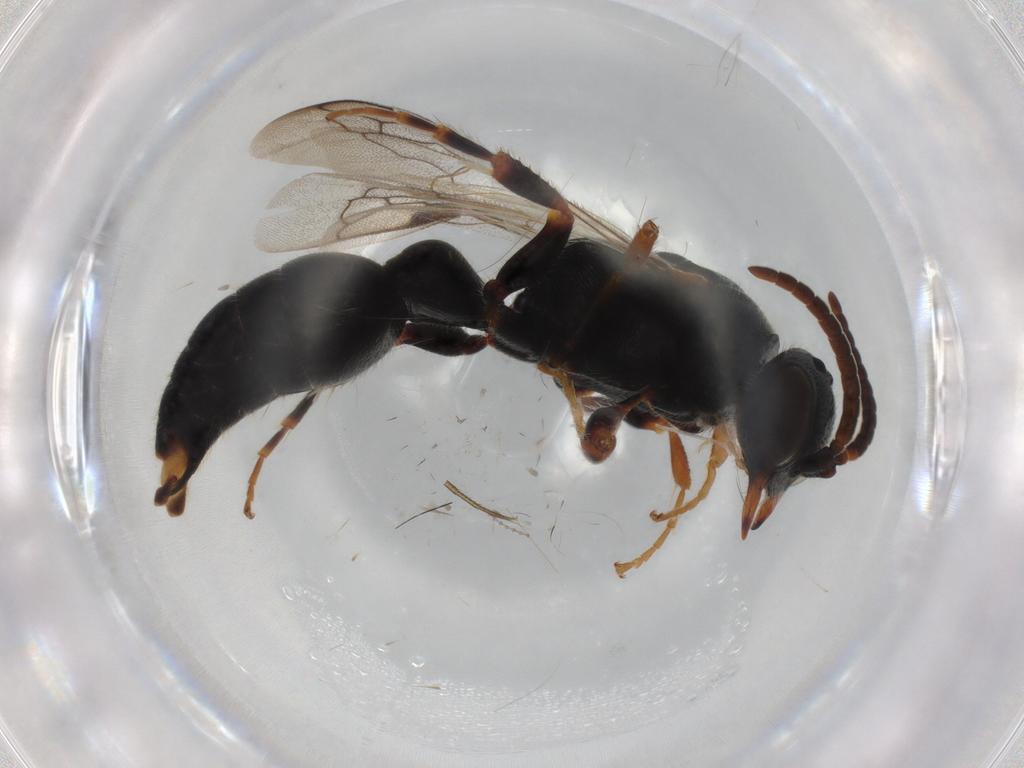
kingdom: Animalia
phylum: Arthropoda
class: Insecta
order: Hymenoptera
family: Tiphiidae
